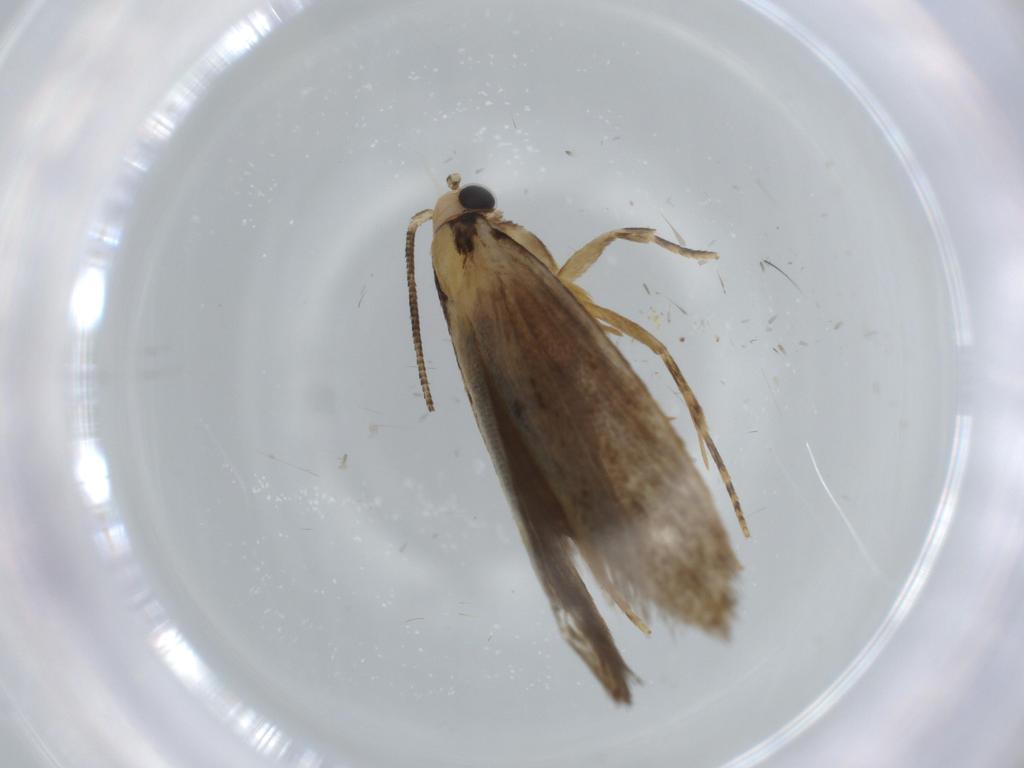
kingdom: Animalia
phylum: Arthropoda
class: Insecta
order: Lepidoptera
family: Tineidae
